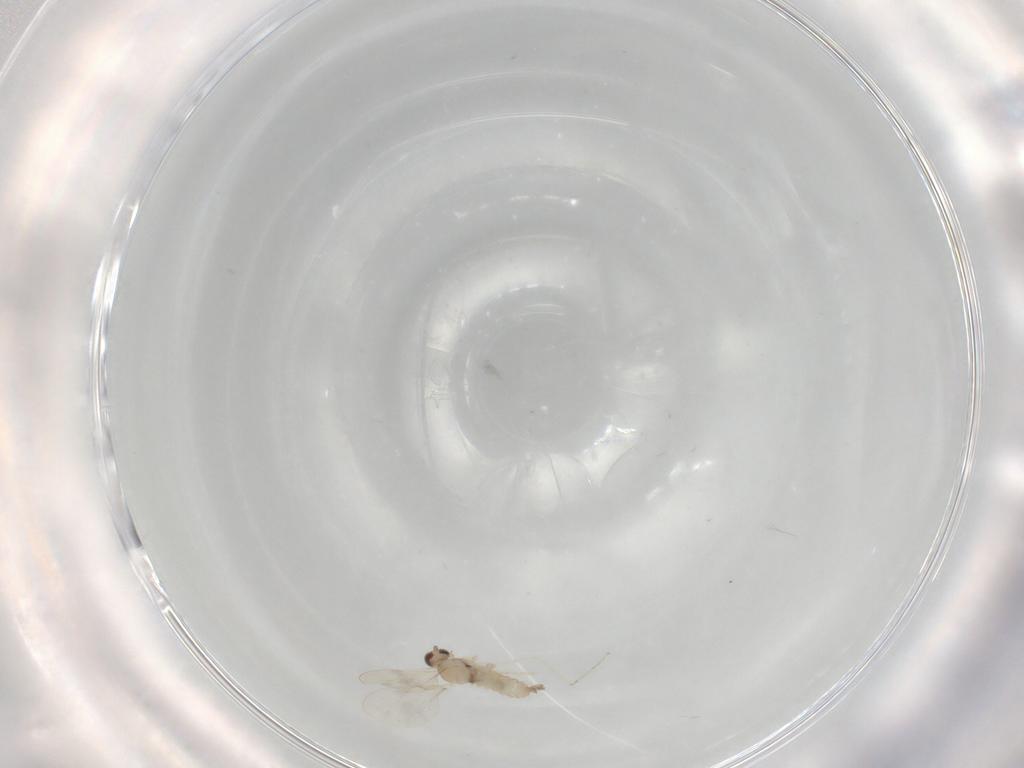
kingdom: Animalia
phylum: Arthropoda
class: Insecta
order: Diptera
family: Cecidomyiidae
